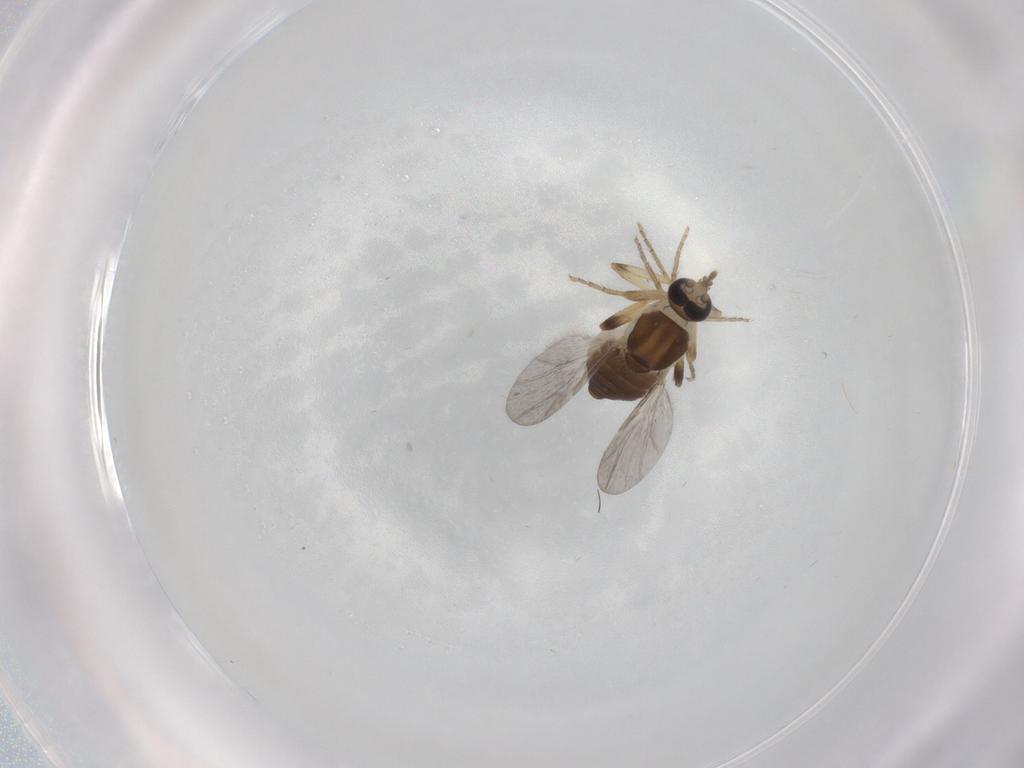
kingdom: Animalia
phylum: Arthropoda
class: Insecta
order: Diptera
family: Ceratopogonidae
